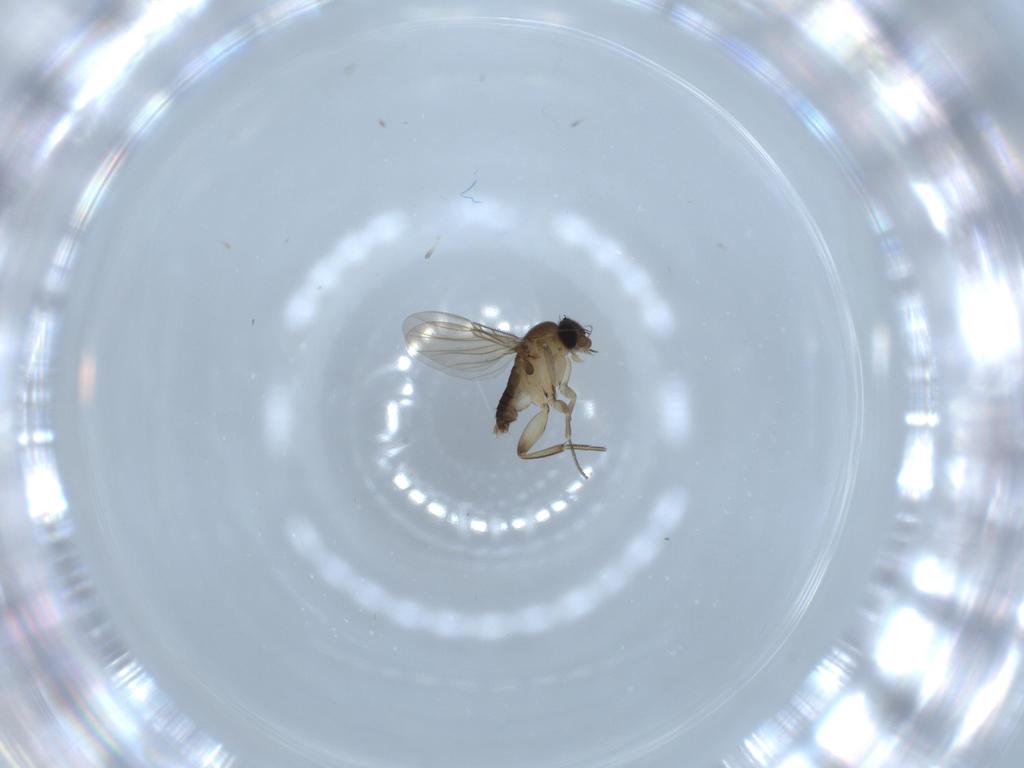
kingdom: Animalia
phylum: Arthropoda
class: Insecta
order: Diptera
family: Phoridae
